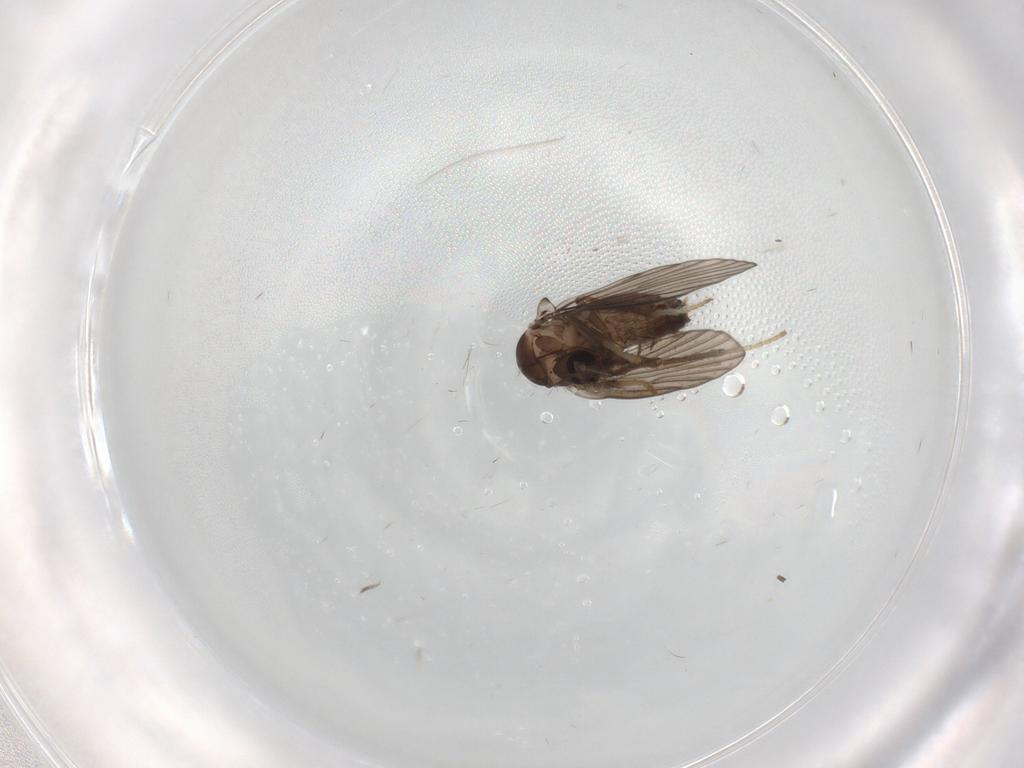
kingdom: Animalia
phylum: Arthropoda
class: Insecta
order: Diptera
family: Psychodidae
